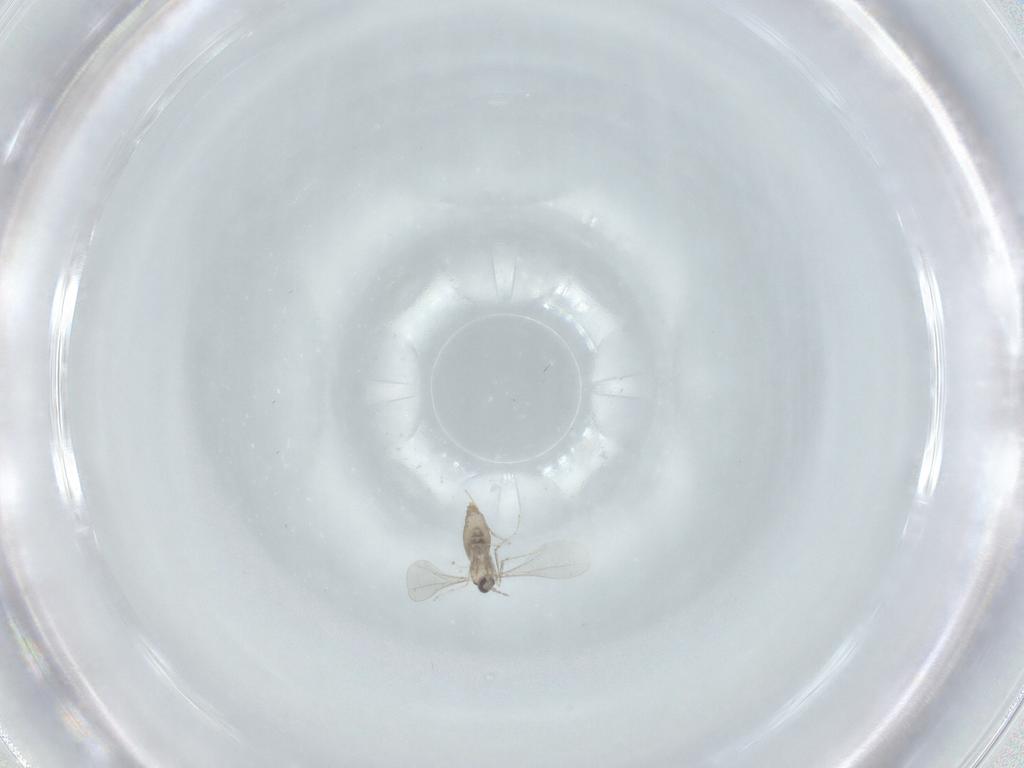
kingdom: Animalia
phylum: Arthropoda
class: Insecta
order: Diptera
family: Cecidomyiidae
